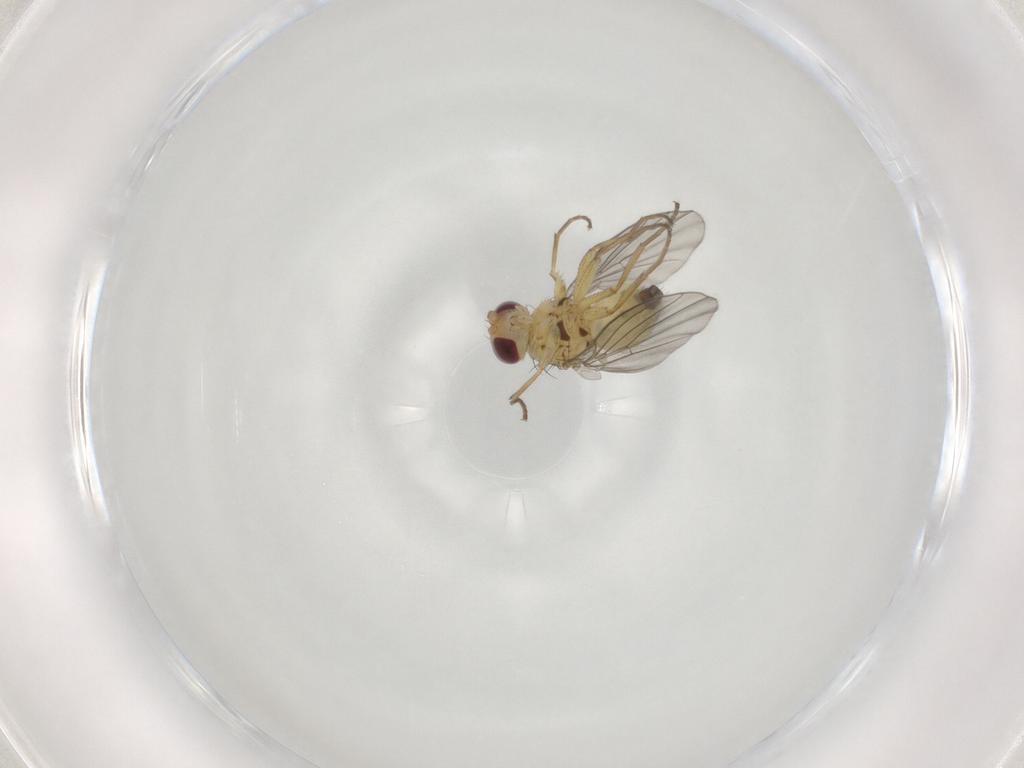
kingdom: Animalia
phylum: Arthropoda
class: Insecta
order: Diptera
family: Agromyzidae
